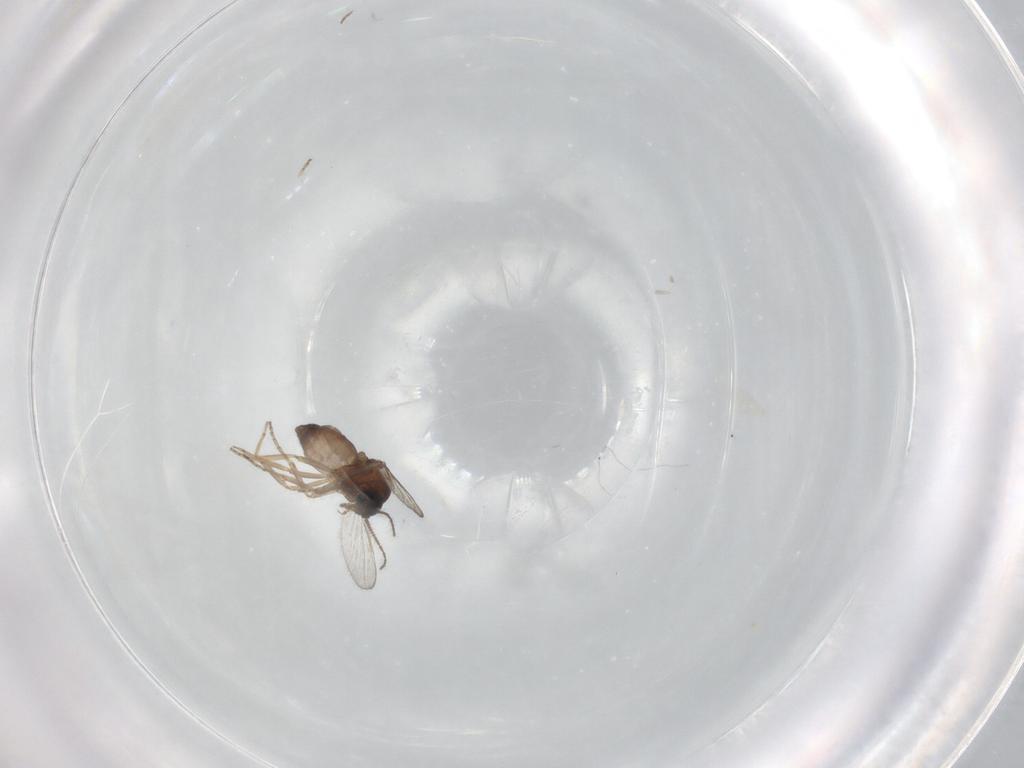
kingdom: Animalia
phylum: Arthropoda
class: Insecta
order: Diptera
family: Ceratopogonidae
